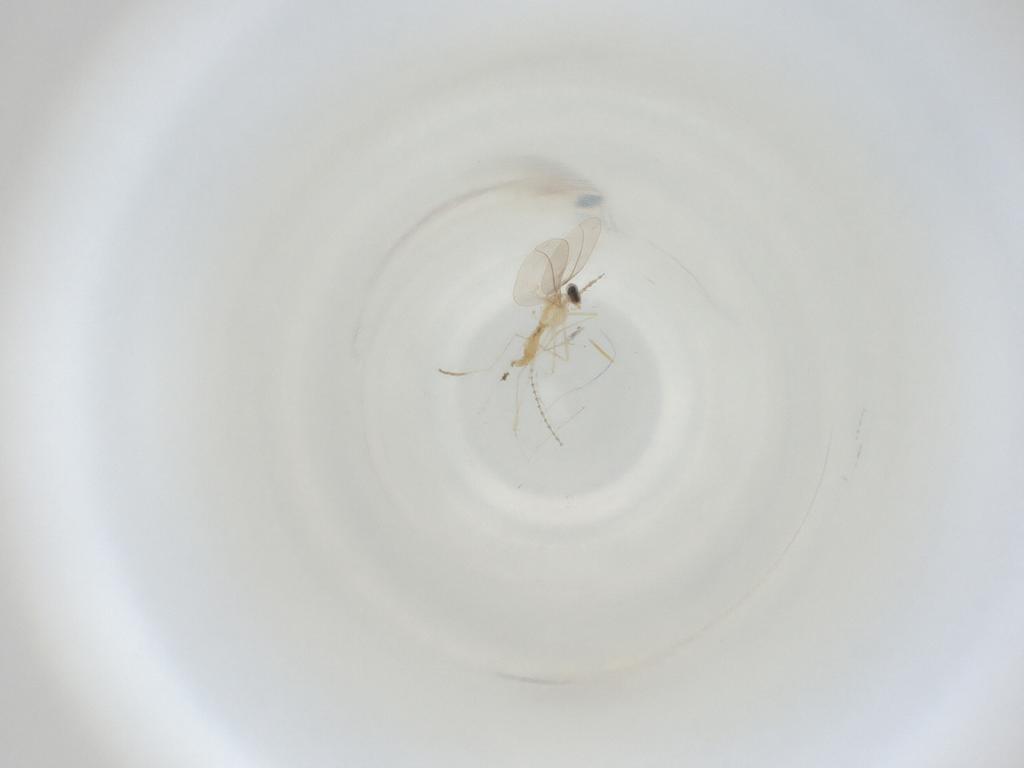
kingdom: Animalia
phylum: Arthropoda
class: Insecta
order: Diptera
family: Cecidomyiidae
